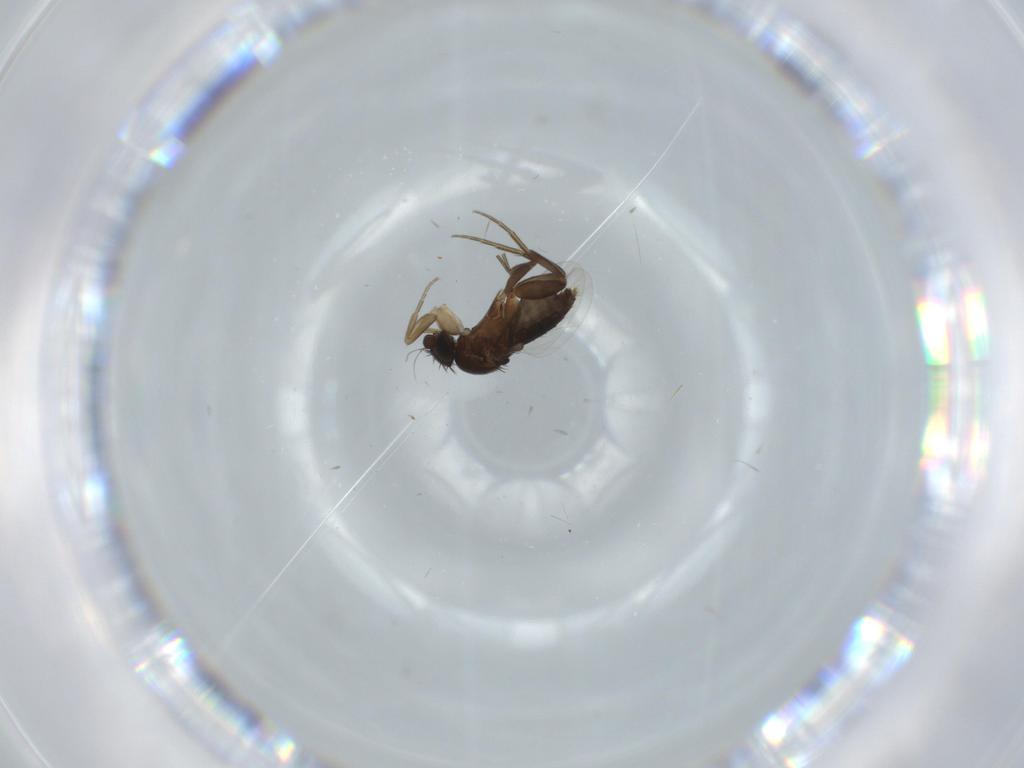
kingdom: Animalia
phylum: Arthropoda
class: Insecta
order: Diptera
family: Phoridae
